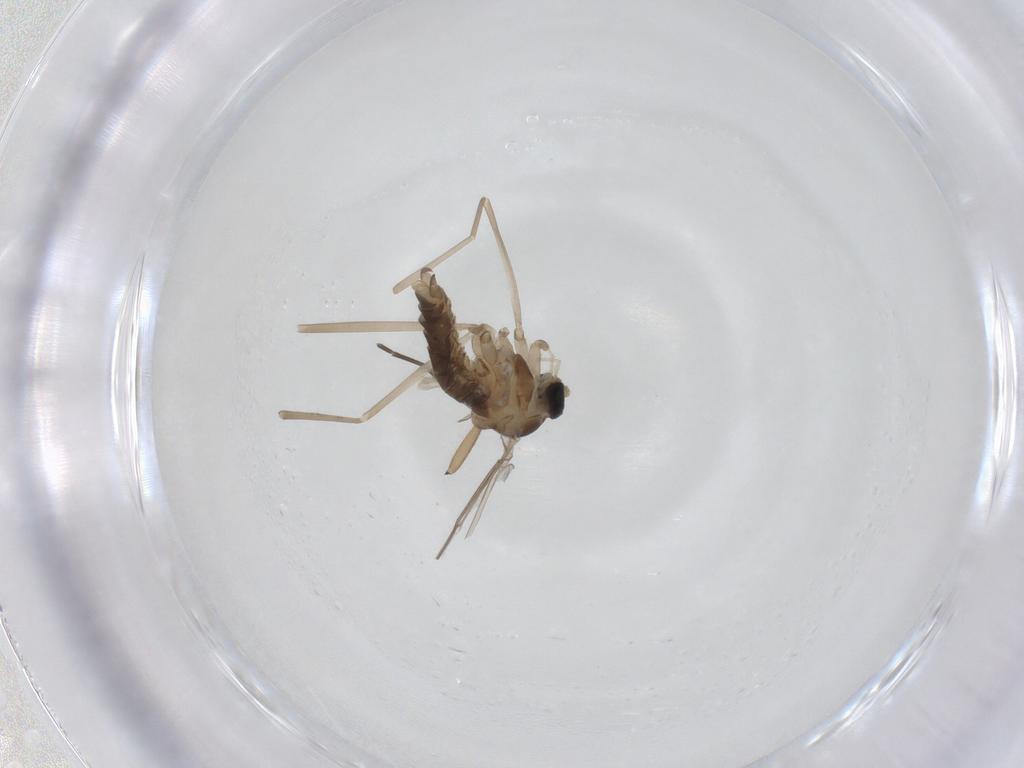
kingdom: Animalia
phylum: Arthropoda
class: Insecta
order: Diptera
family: Sciaridae
